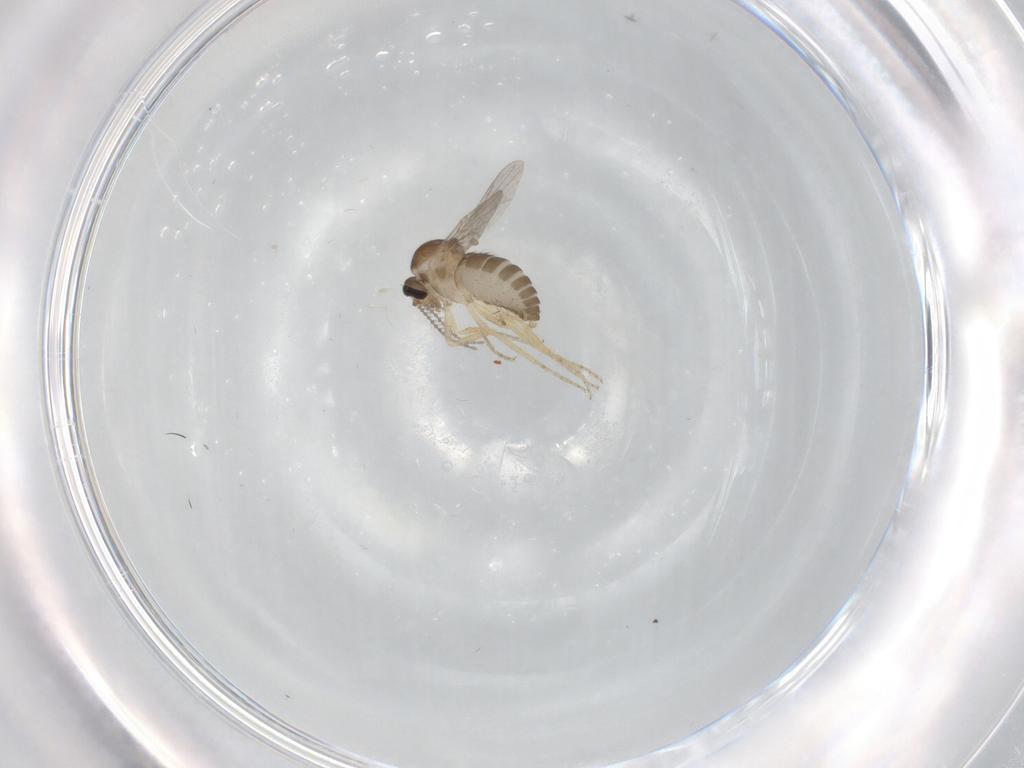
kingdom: Animalia
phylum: Arthropoda
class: Insecta
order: Diptera
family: Ceratopogonidae
